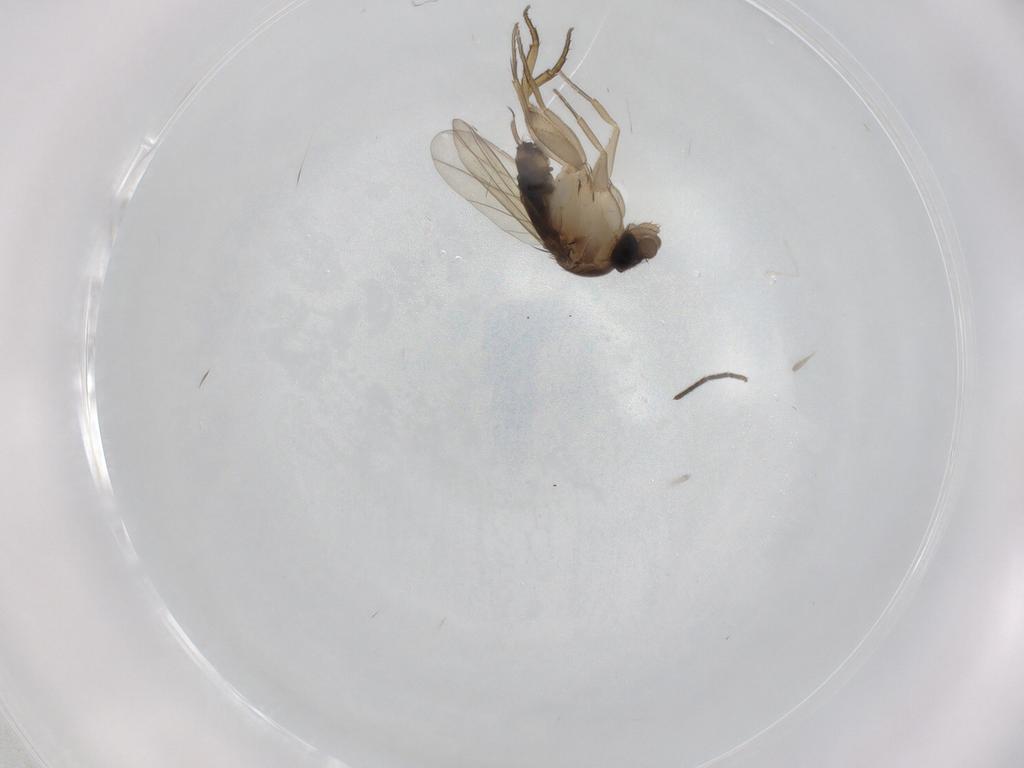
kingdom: Animalia
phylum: Arthropoda
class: Insecta
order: Diptera
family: Phoridae
